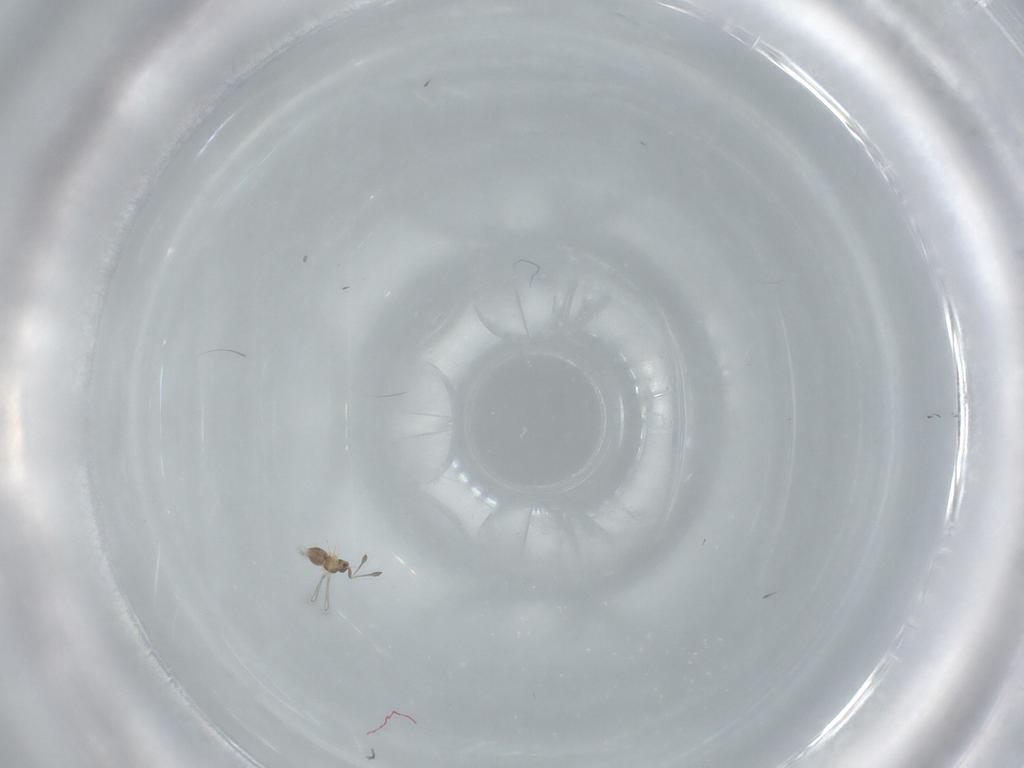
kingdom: Animalia
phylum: Arthropoda
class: Insecta
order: Hymenoptera
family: Mymaridae
